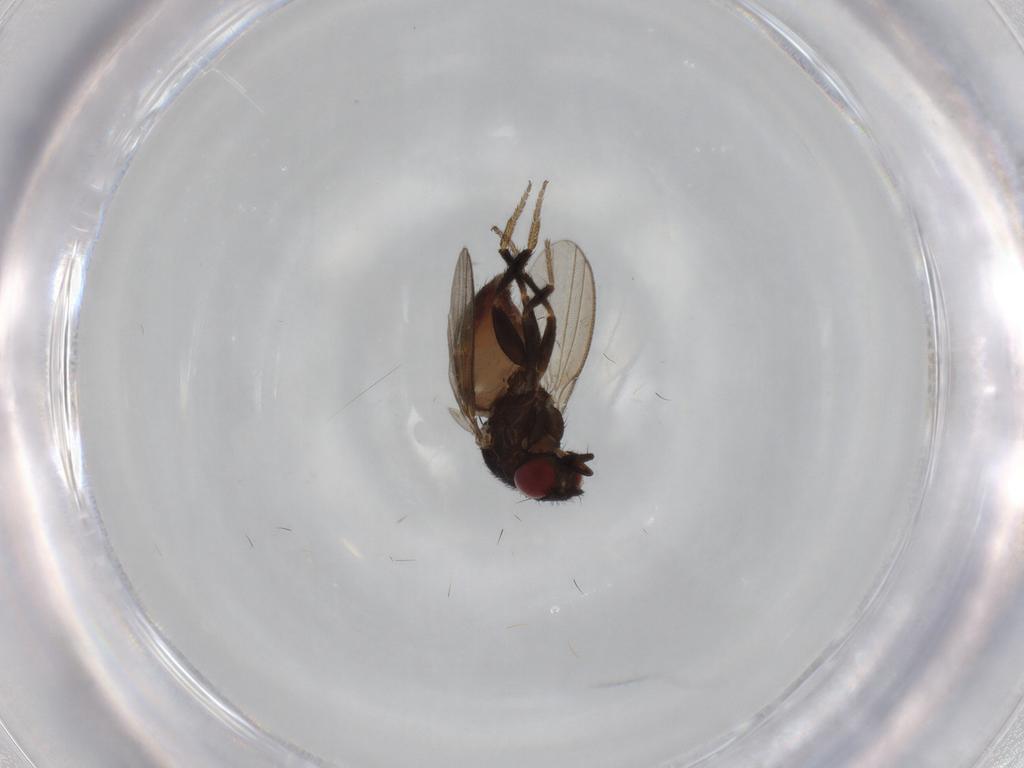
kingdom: Animalia
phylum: Arthropoda
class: Insecta
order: Diptera
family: Milichiidae
